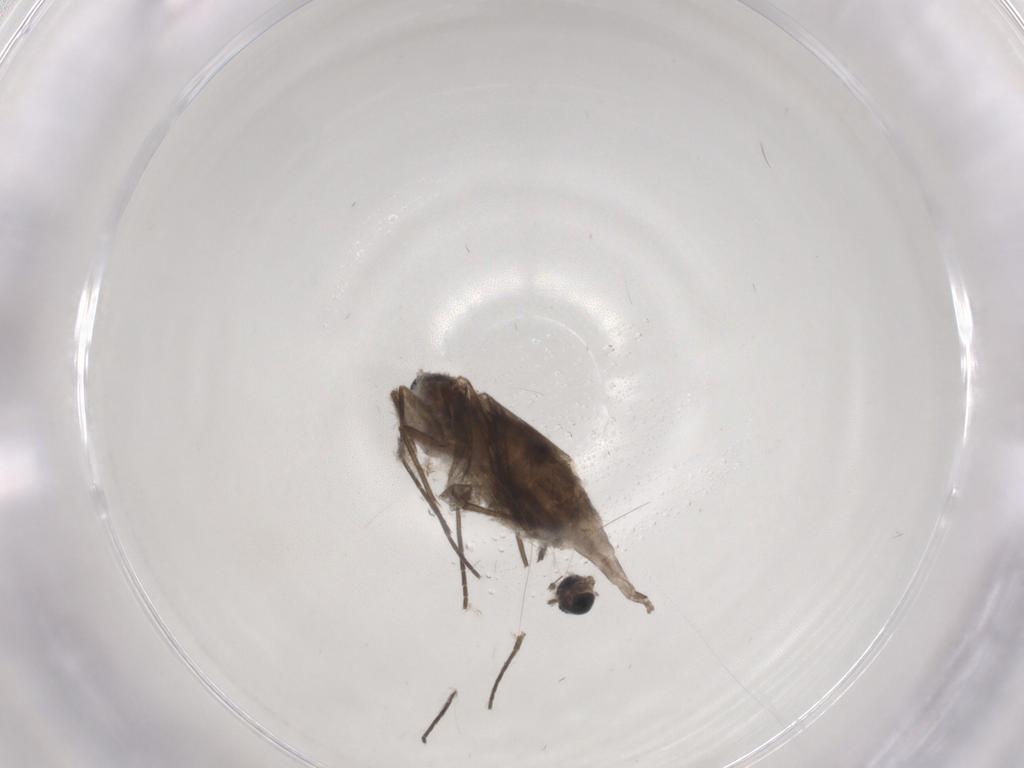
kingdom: Animalia
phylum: Arthropoda
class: Insecta
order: Diptera
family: Sciaridae
